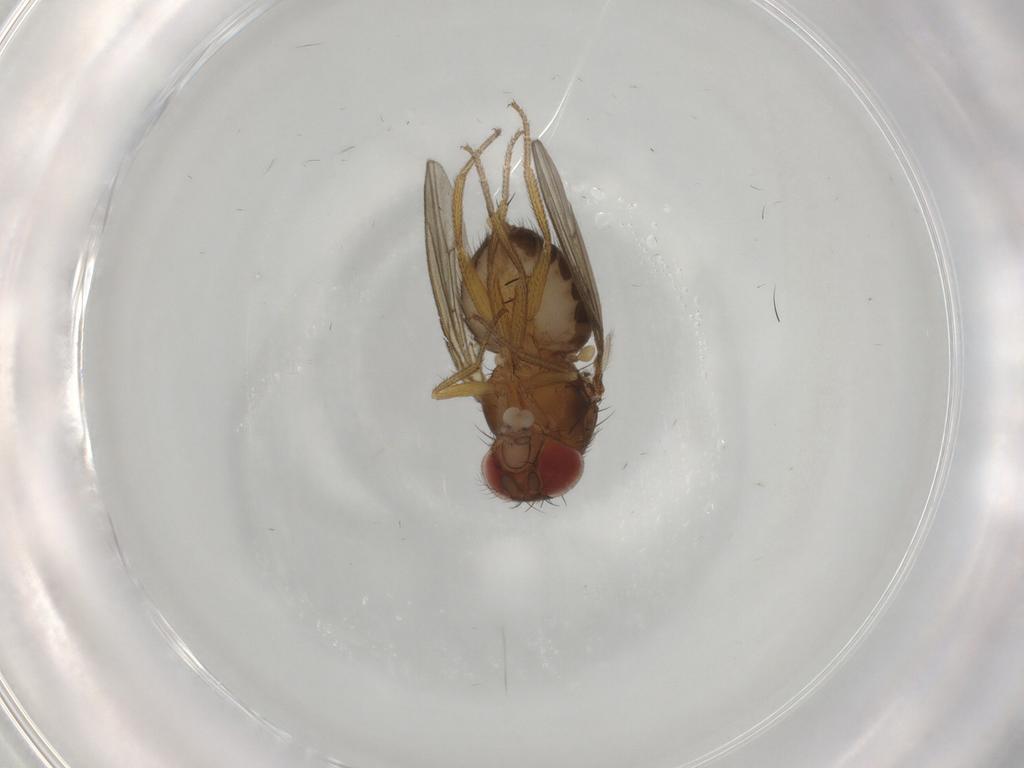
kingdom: Animalia
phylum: Arthropoda
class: Insecta
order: Diptera
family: Drosophilidae
